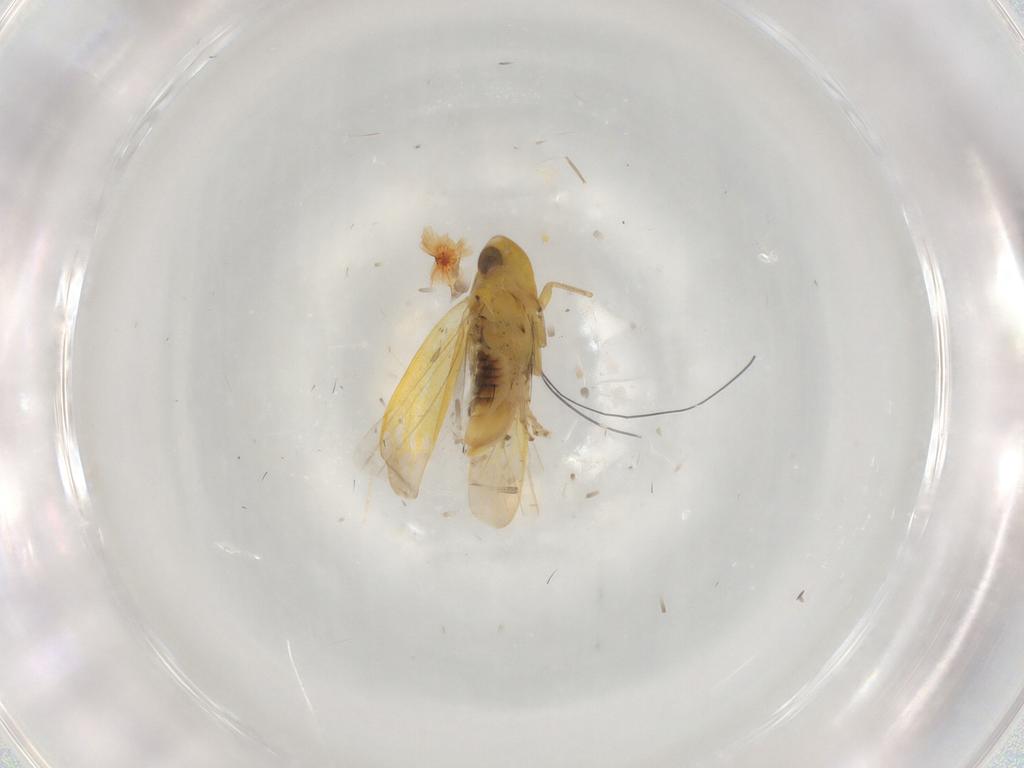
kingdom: Animalia
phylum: Arthropoda
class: Insecta
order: Hemiptera
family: Cicadellidae
